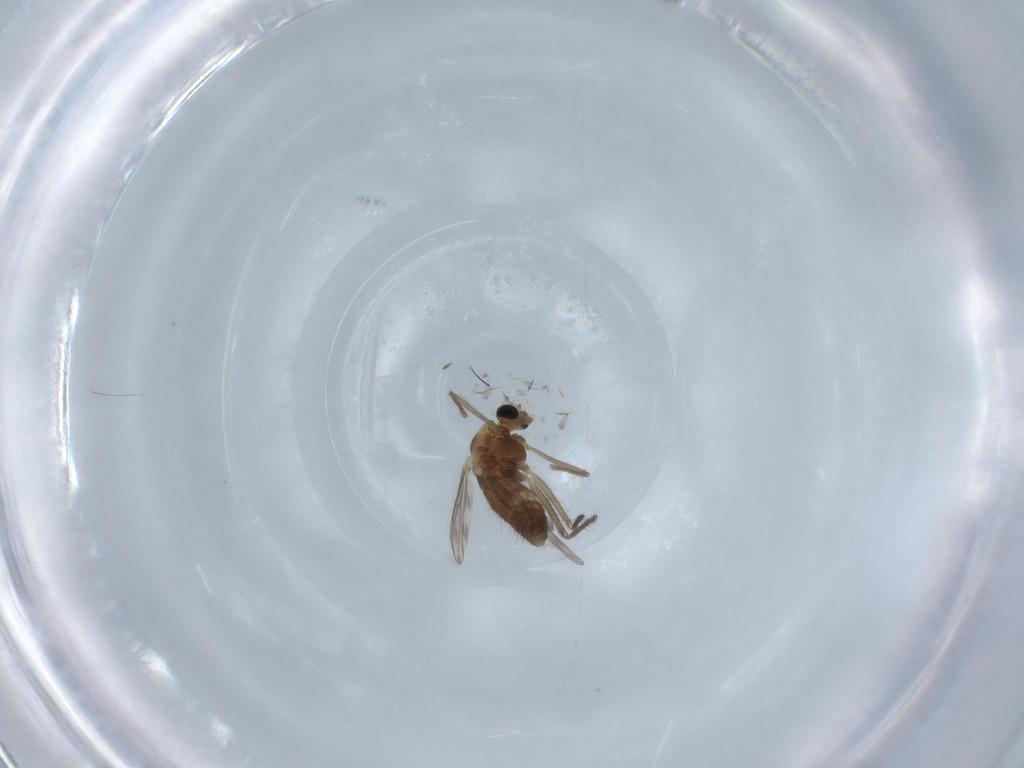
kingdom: Animalia
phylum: Arthropoda
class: Insecta
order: Diptera
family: Chironomidae
